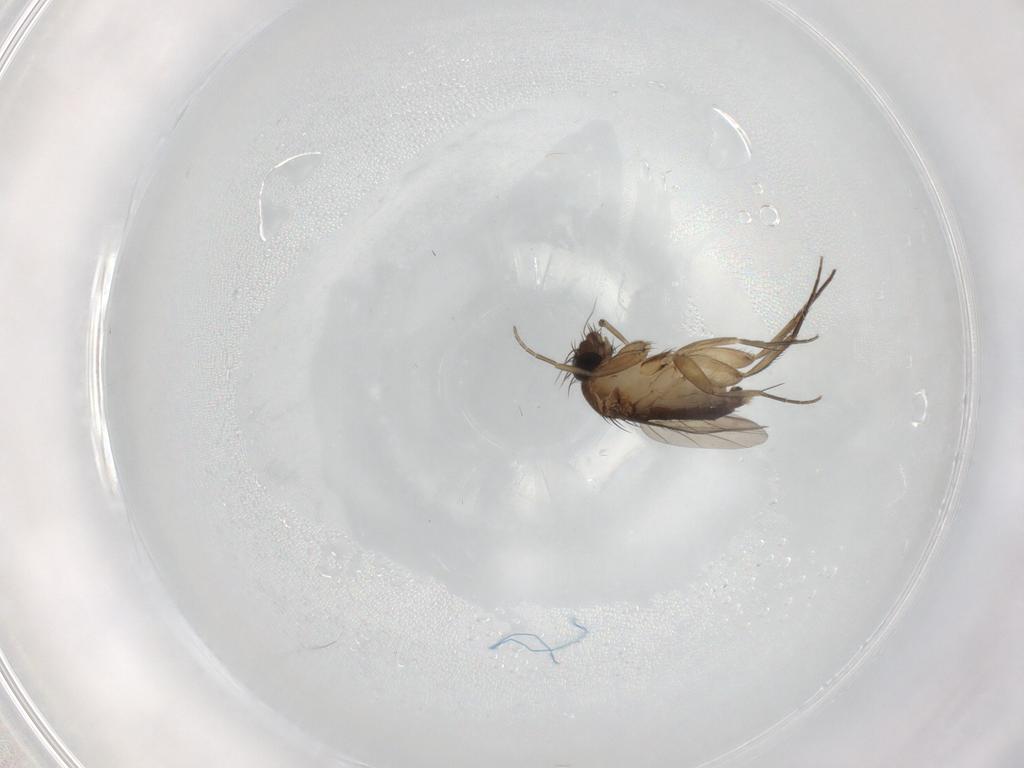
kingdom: Animalia
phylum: Arthropoda
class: Insecta
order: Diptera
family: Phoridae
